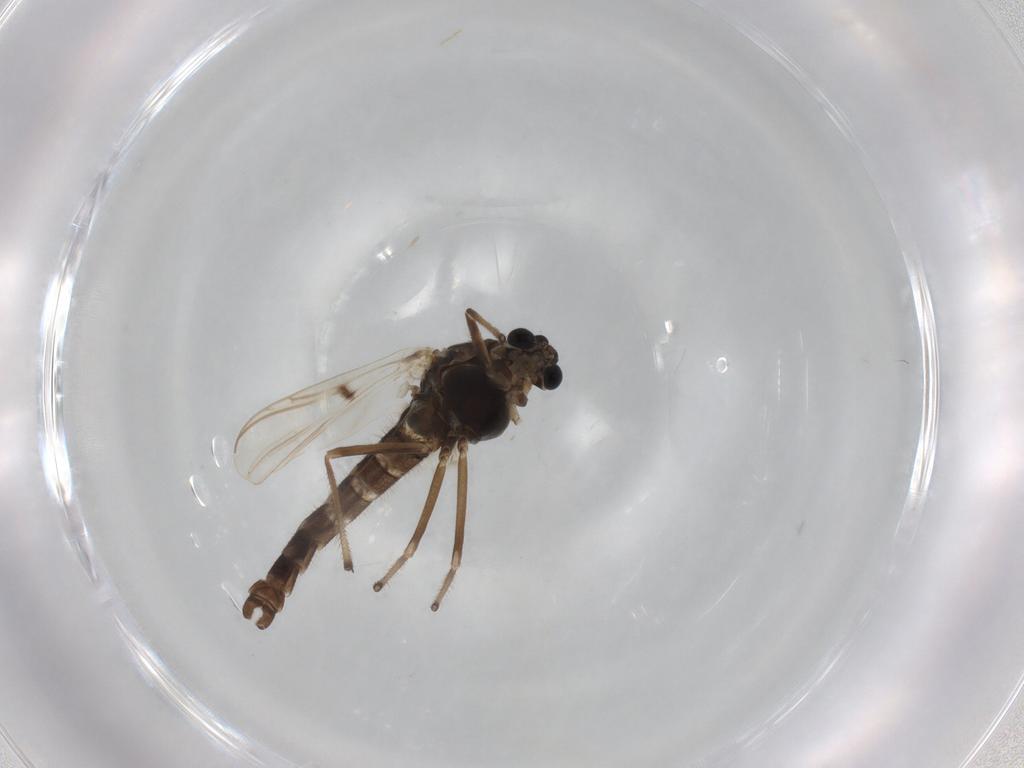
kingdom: Animalia
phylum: Arthropoda
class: Insecta
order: Diptera
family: Chironomidae
